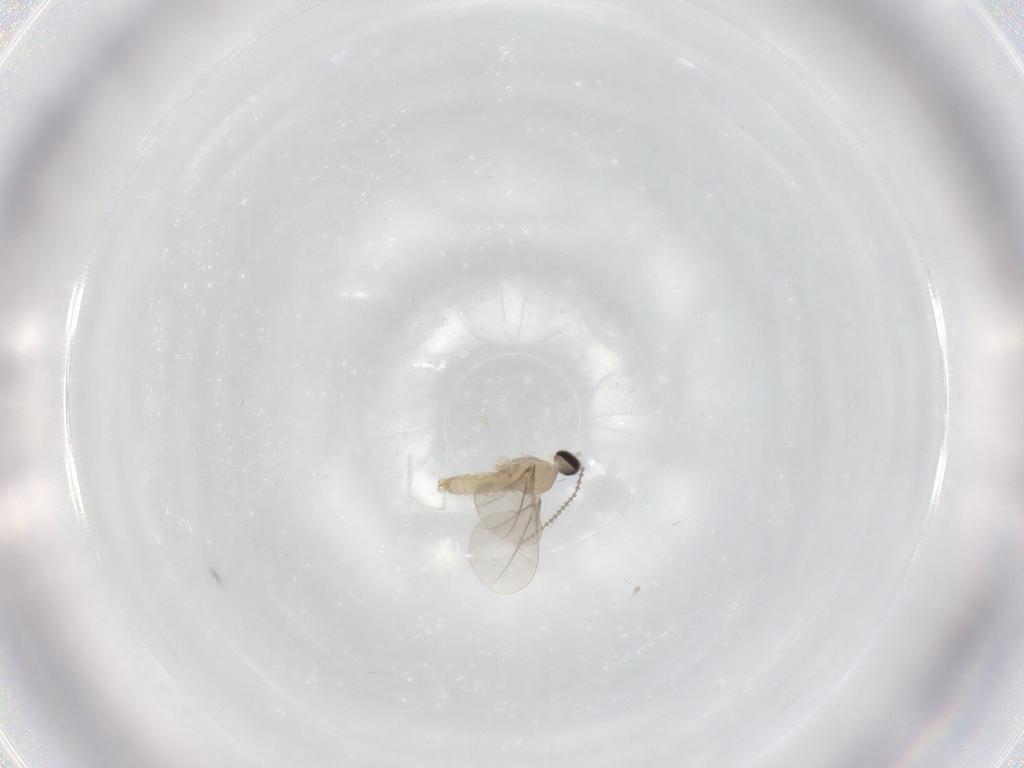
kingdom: Animalia
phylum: Arthropoda
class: Insecta
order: Diptera
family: Cecidomyiidae
